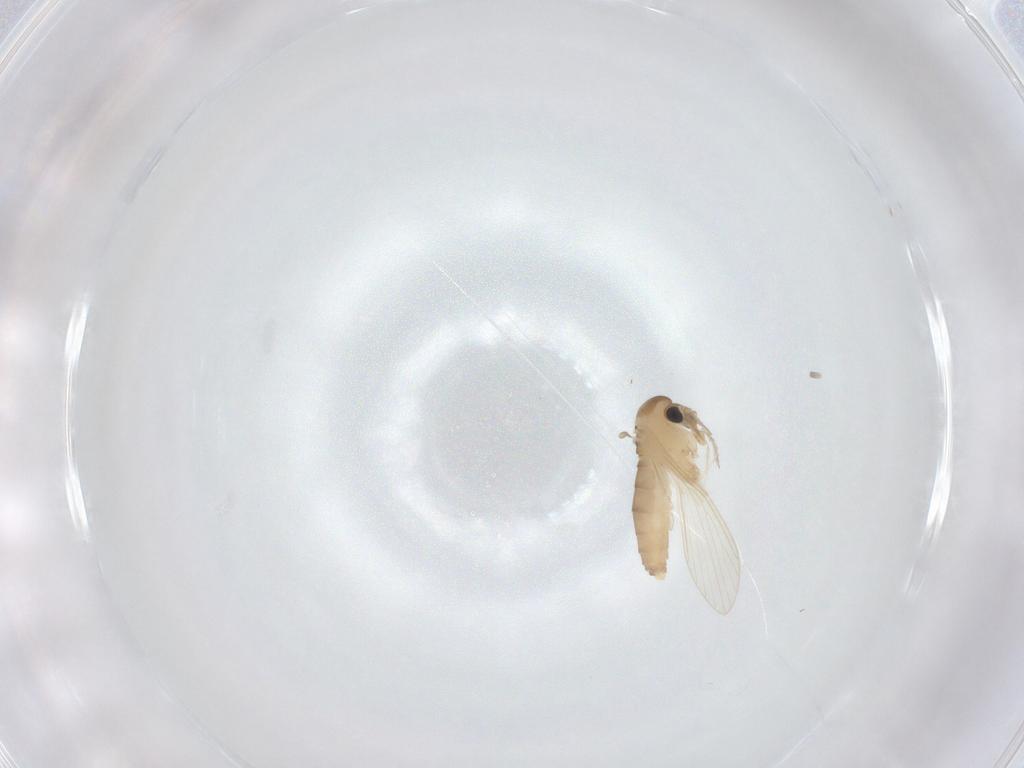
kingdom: Animalia
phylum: Arthropoda
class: Insecta
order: Diptera
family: Psychodidae
